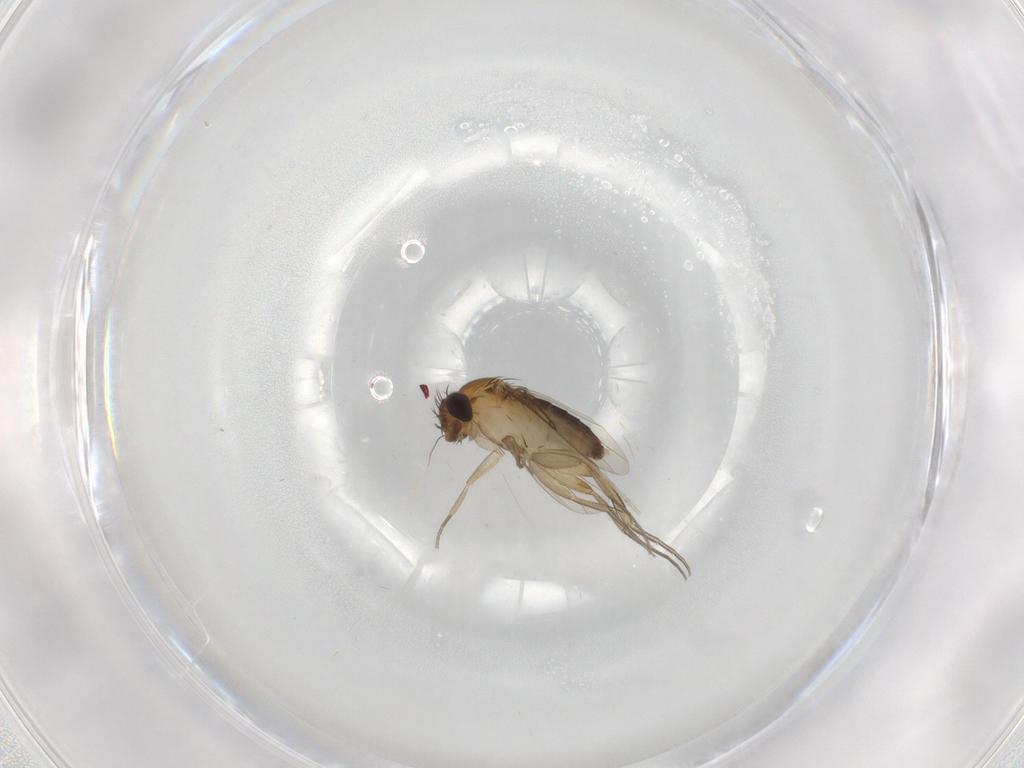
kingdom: Animalia
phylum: Arthropoda
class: Insecta
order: Diptera
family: Phoridae
